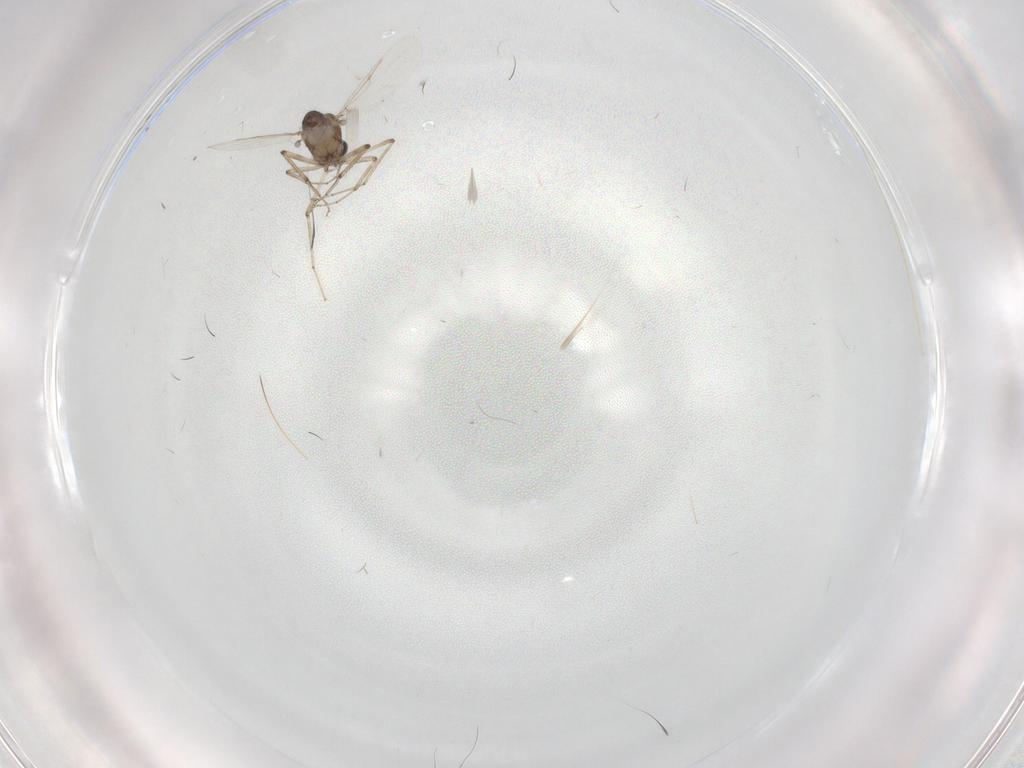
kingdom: Animalia
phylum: Arthropoda
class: Insecta
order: Diptera
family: Ceratopogonidae
